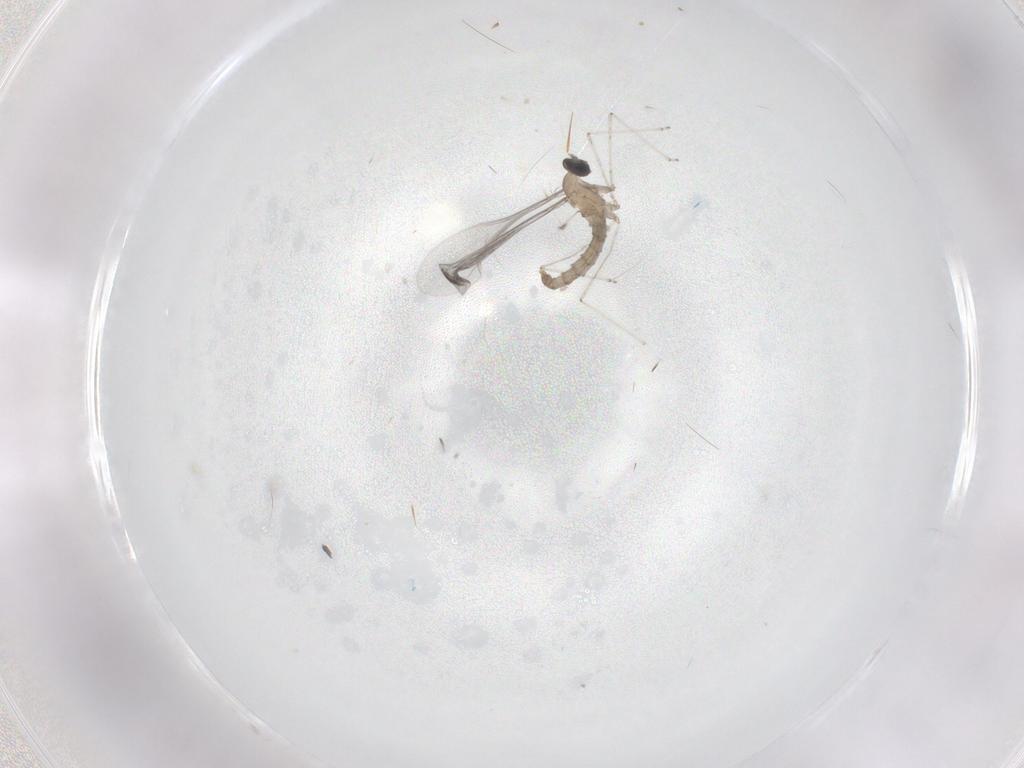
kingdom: Animalia
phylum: Arthropoda
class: Insecta
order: Diptera
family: Cecidomyiidae
